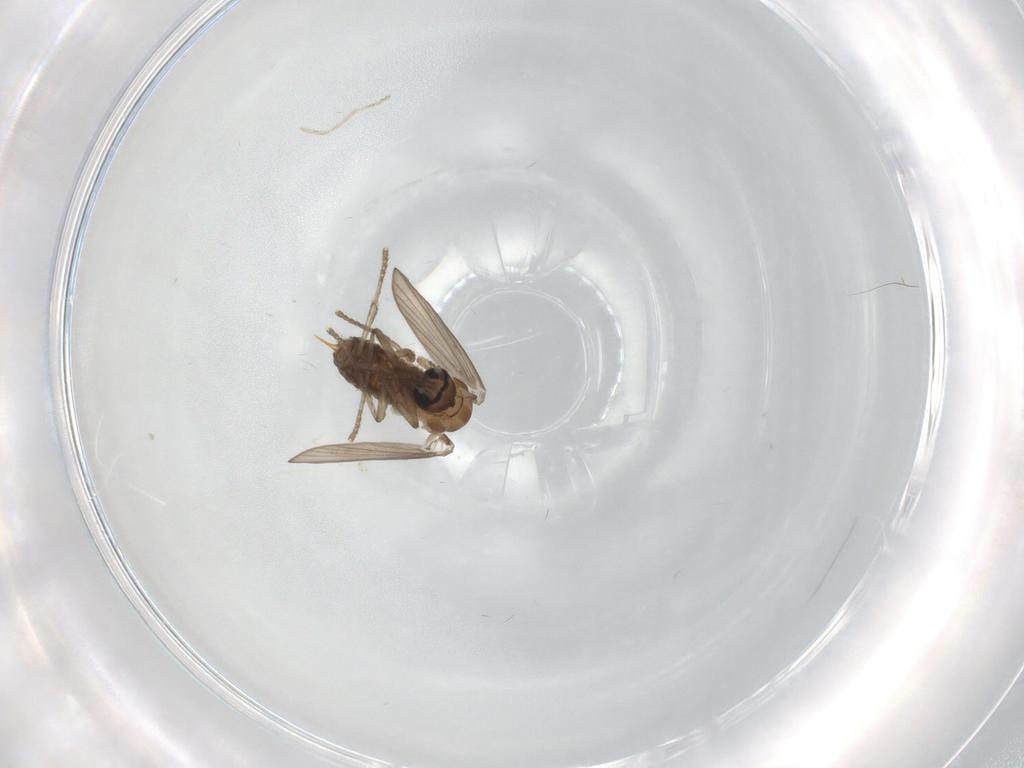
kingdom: Animalia
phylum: Arthropoda
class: Insecta
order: Diptera
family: Psychodidae
